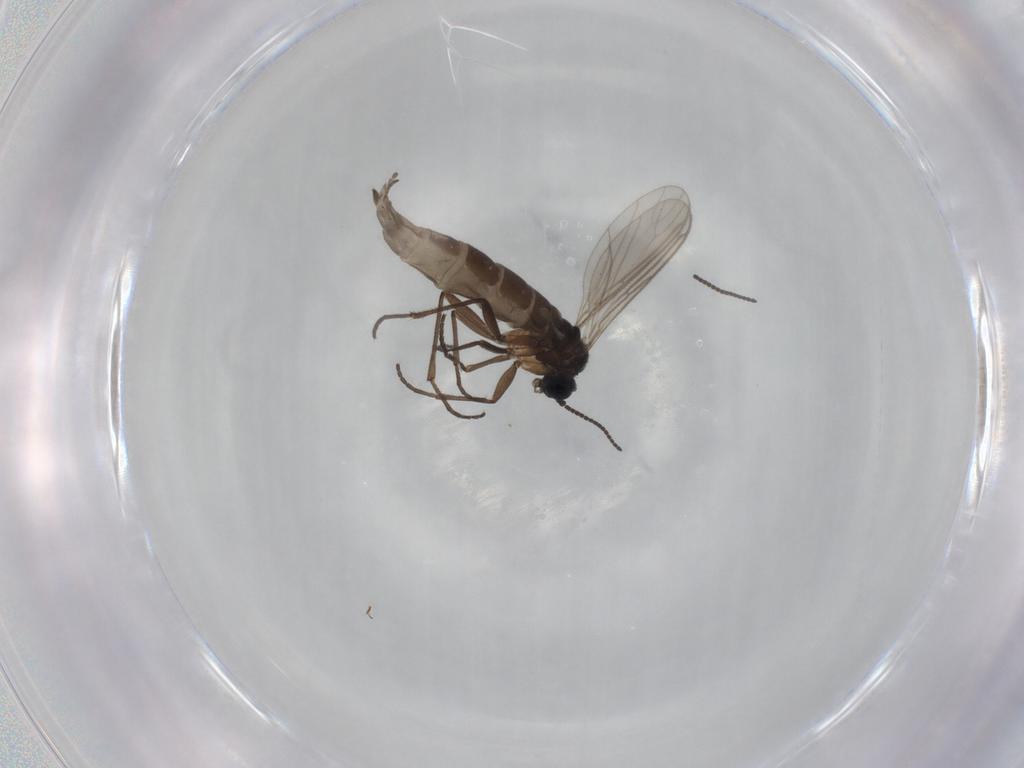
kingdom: Animalia
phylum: Arthropoda
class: Insecta
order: Diptera
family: Sciaridae
